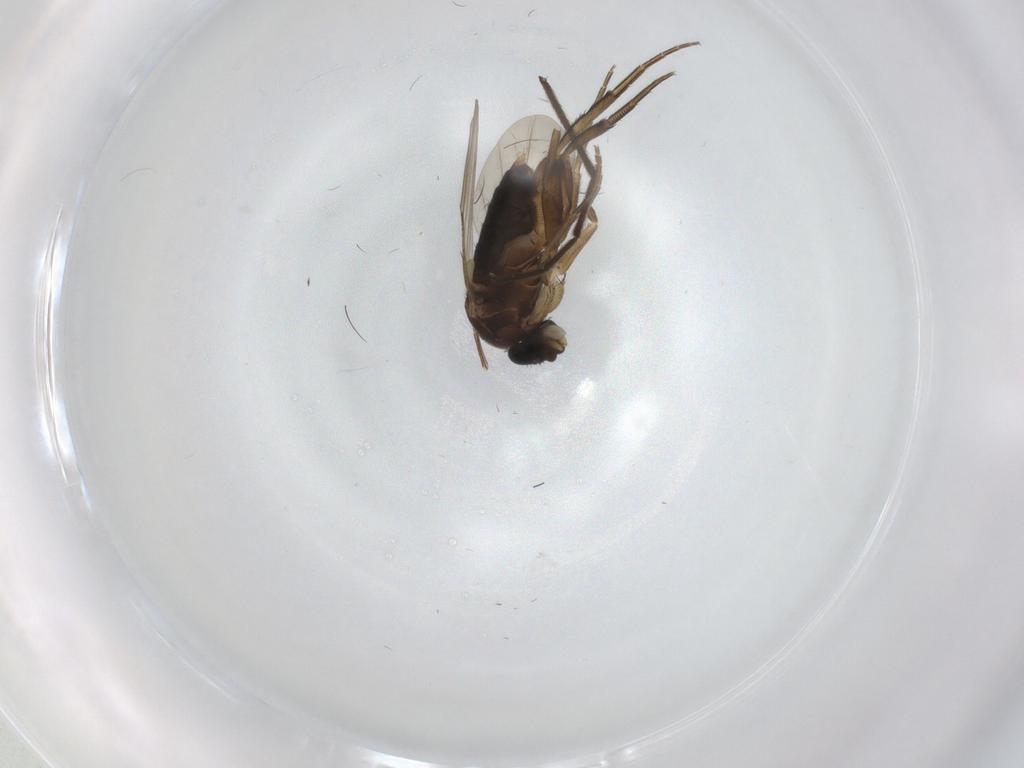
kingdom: Animalia
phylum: Arthropoda
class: Insecta
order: Diptera
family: Phoridae
